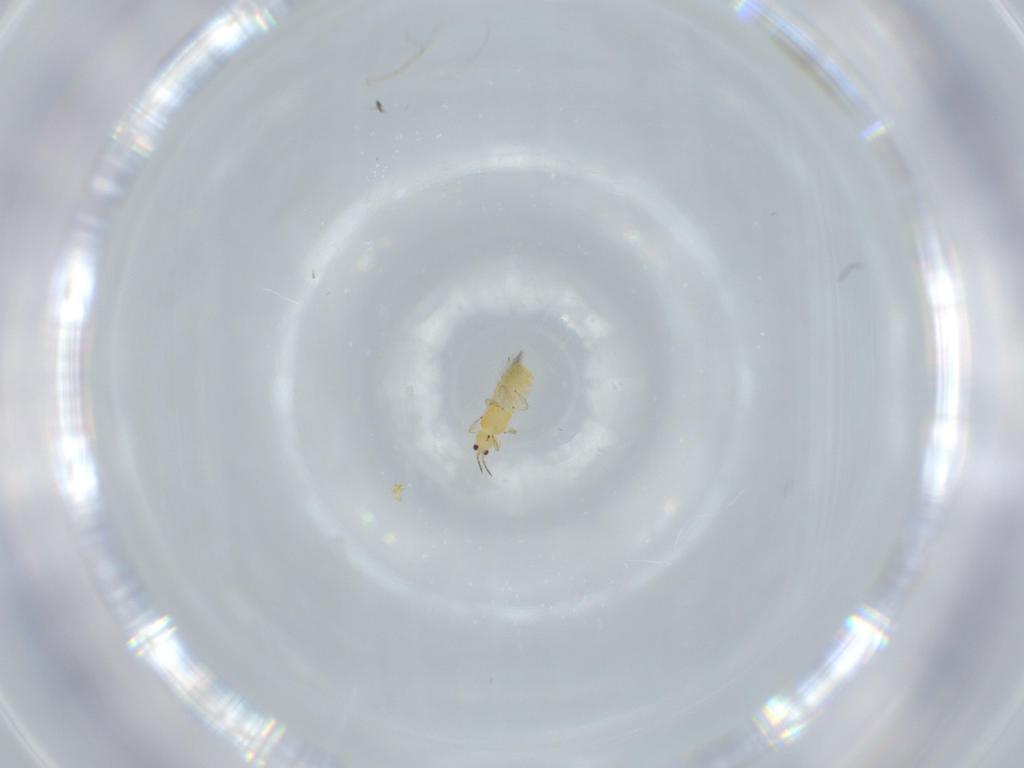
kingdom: Animalia
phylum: Arthropoda
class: Insecta
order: Thysanoptera
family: Thripidae
